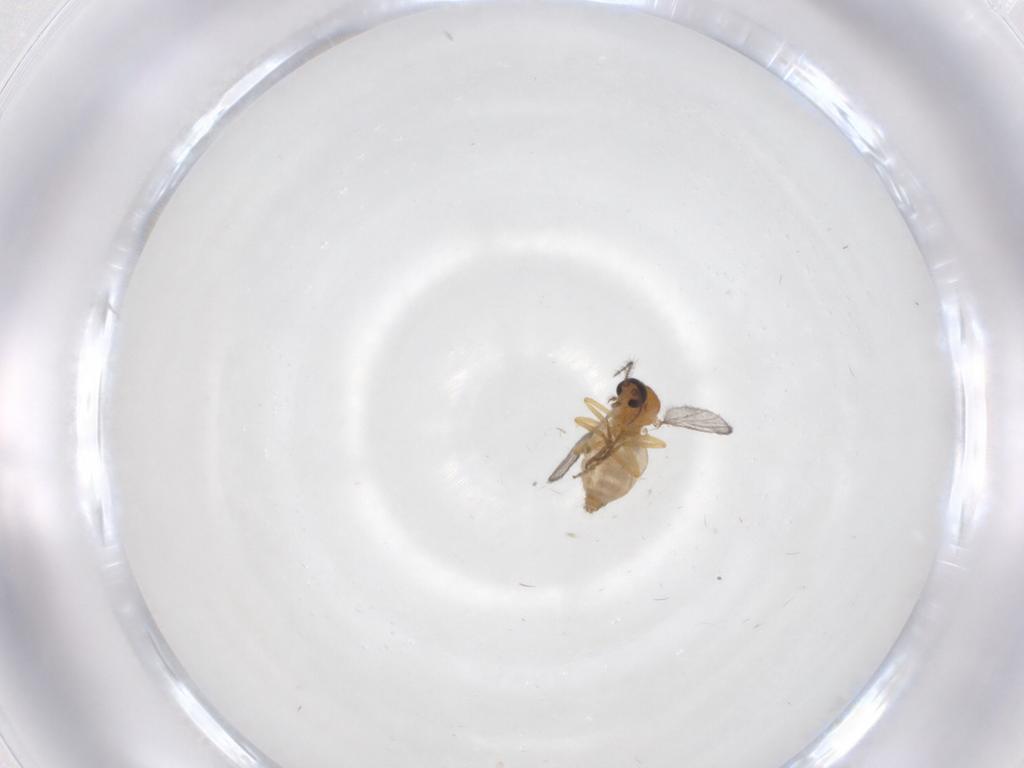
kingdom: Animalia
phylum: Arthropoda
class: Insecta
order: Diptera
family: Ceratopogonidae
